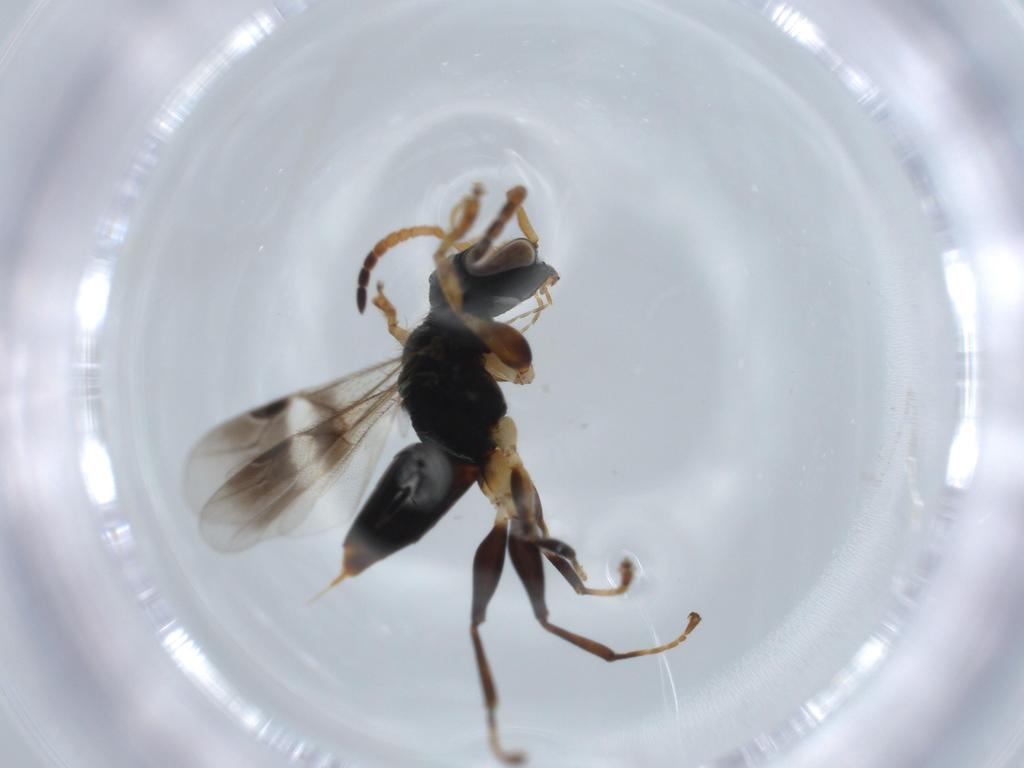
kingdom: Animalia
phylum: Arthropoda
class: Insecta
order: Hymenoptera
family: Dryinidae
